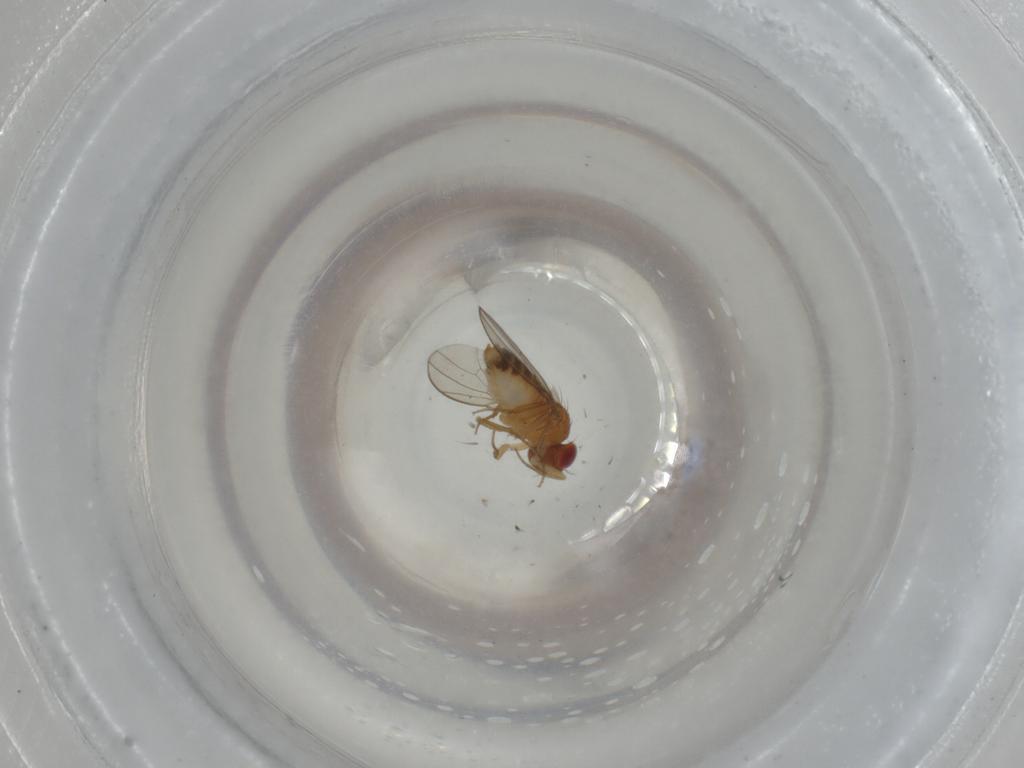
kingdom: Animalia
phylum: Arthropoda
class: Insecta
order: Diptera
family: Drosophilidae
